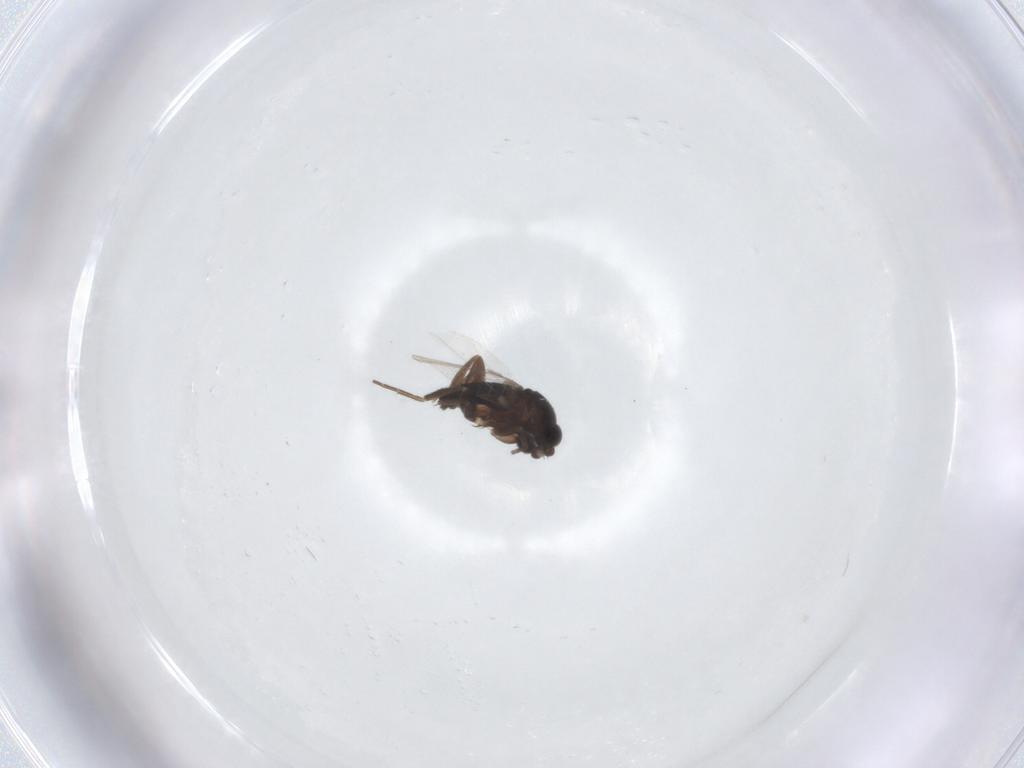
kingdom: Animalia
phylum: Arthropoda
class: Insecta
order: Diptera
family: Phoridae
